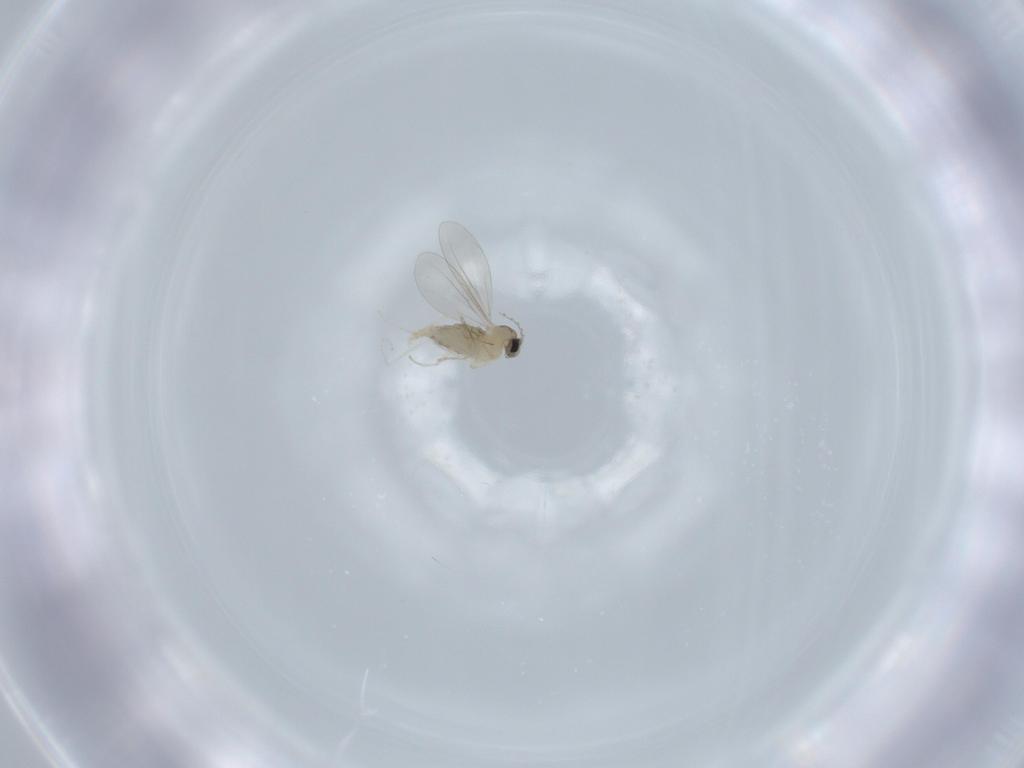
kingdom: Animalia
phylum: Arthropoda
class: Insecta
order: Diptera
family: Cecidomyiidae
